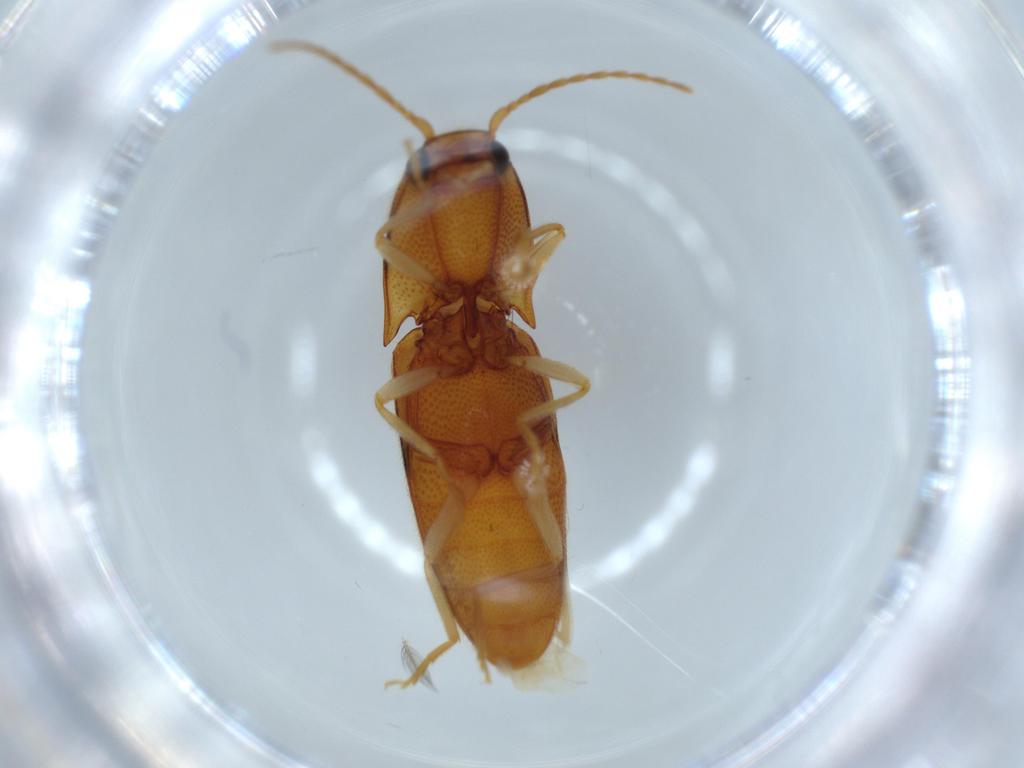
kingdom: Animalia
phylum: Arthropoda
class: Insecta
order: Coleoptera
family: Elateridae
